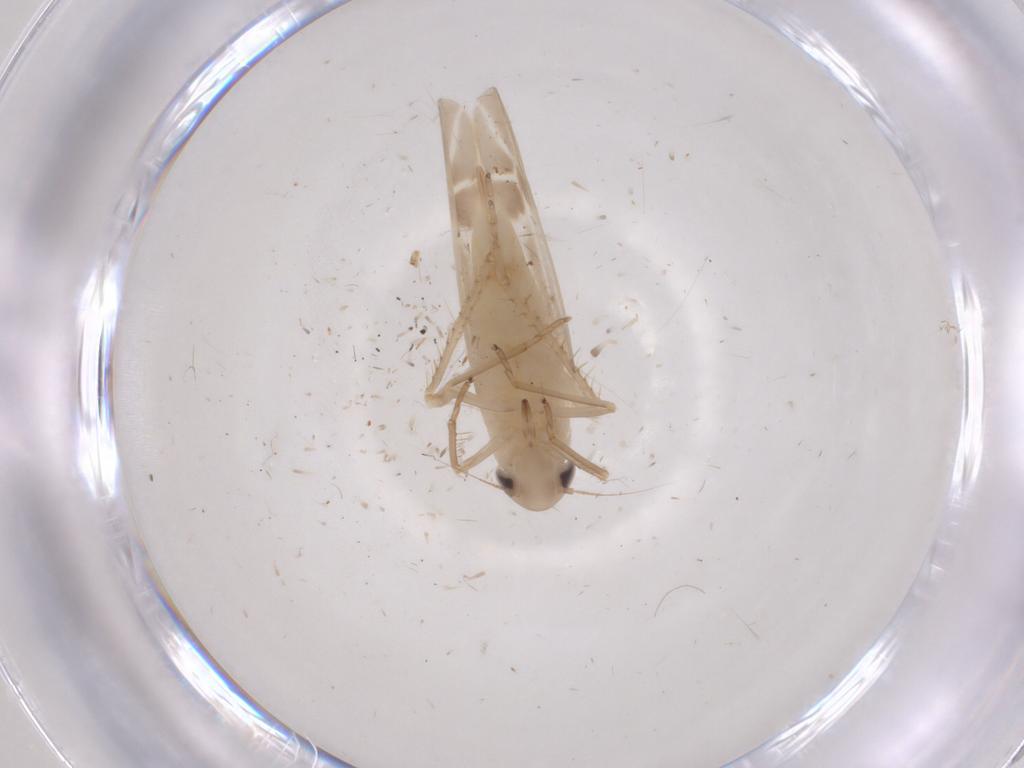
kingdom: Animalia
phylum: Arthropoda
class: Insecta
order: Hemiptera
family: Cicadellidae
